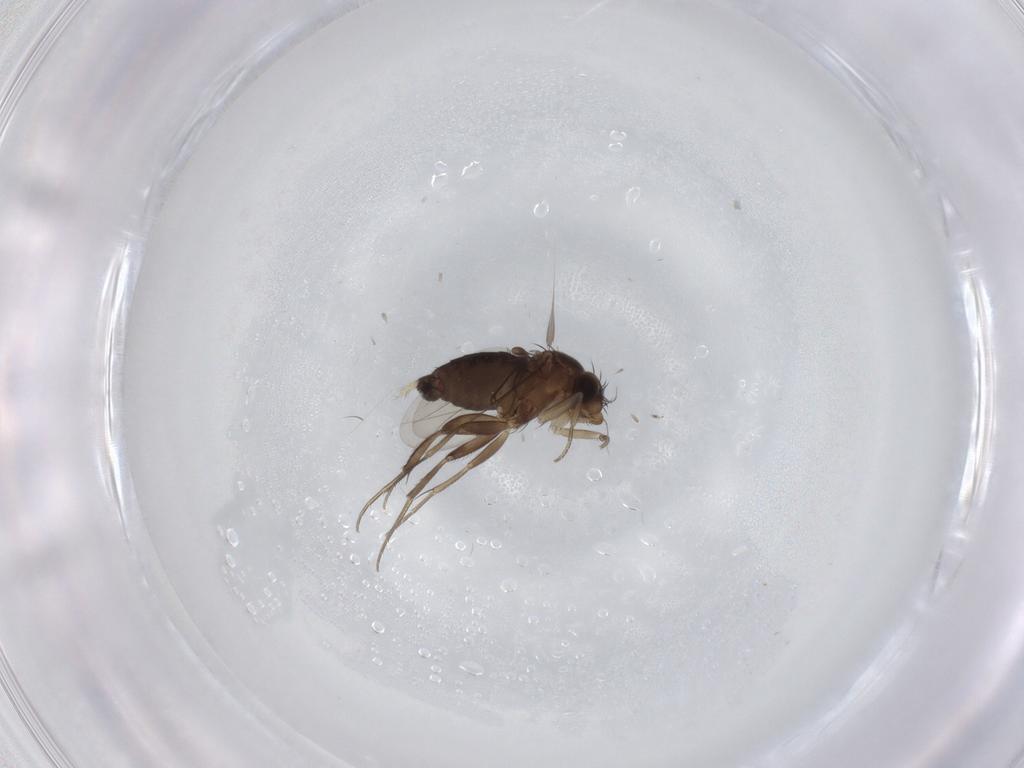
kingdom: Animalia
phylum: Arthropoda
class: Insecta
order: Diptera
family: Phoridae
